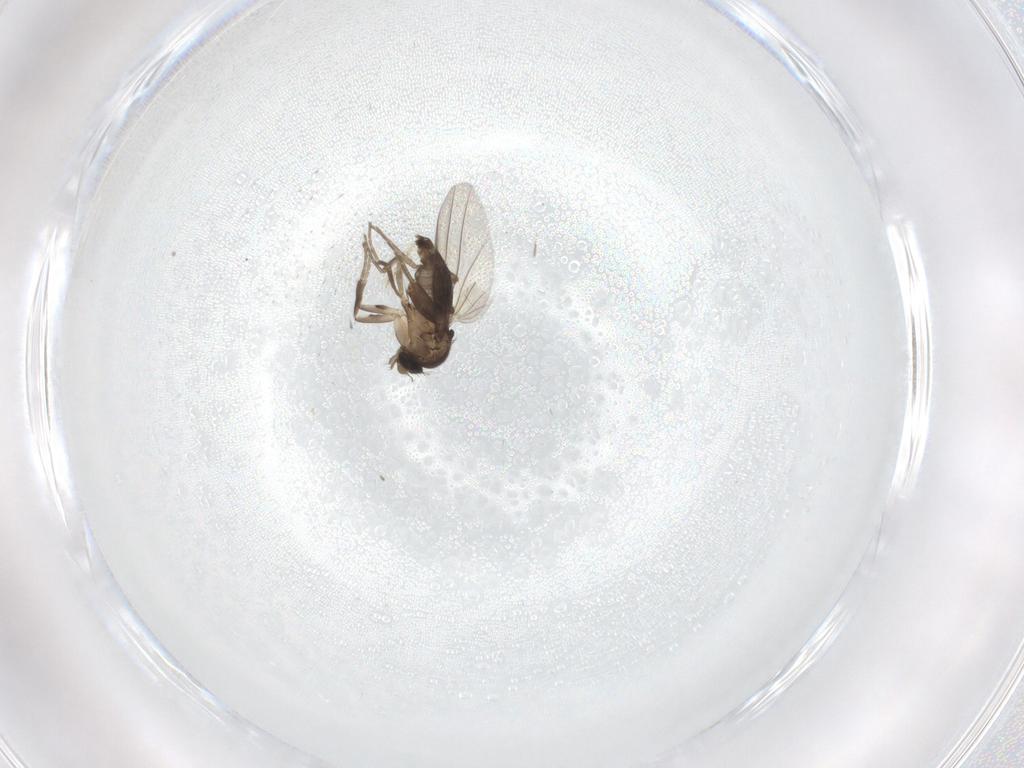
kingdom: Animalia
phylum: Arthropoda
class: Insecta
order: Diptera
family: Phoridae
